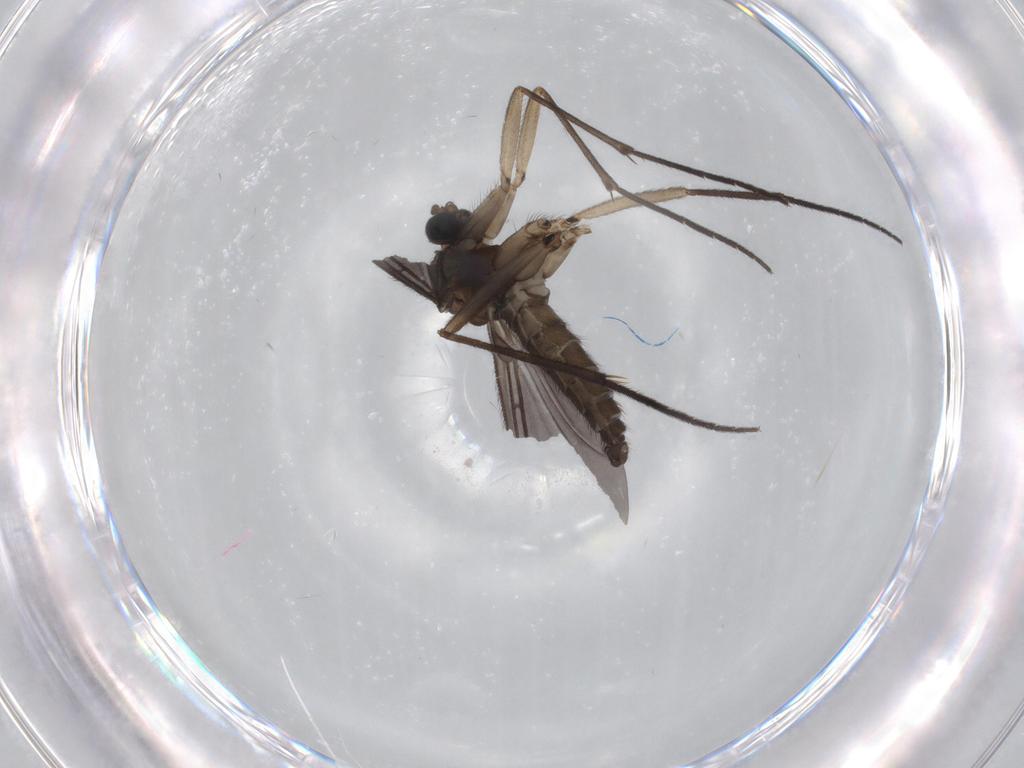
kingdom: Animalia
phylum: Arthropoda
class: Insecta
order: Diptera
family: Sciaridae
